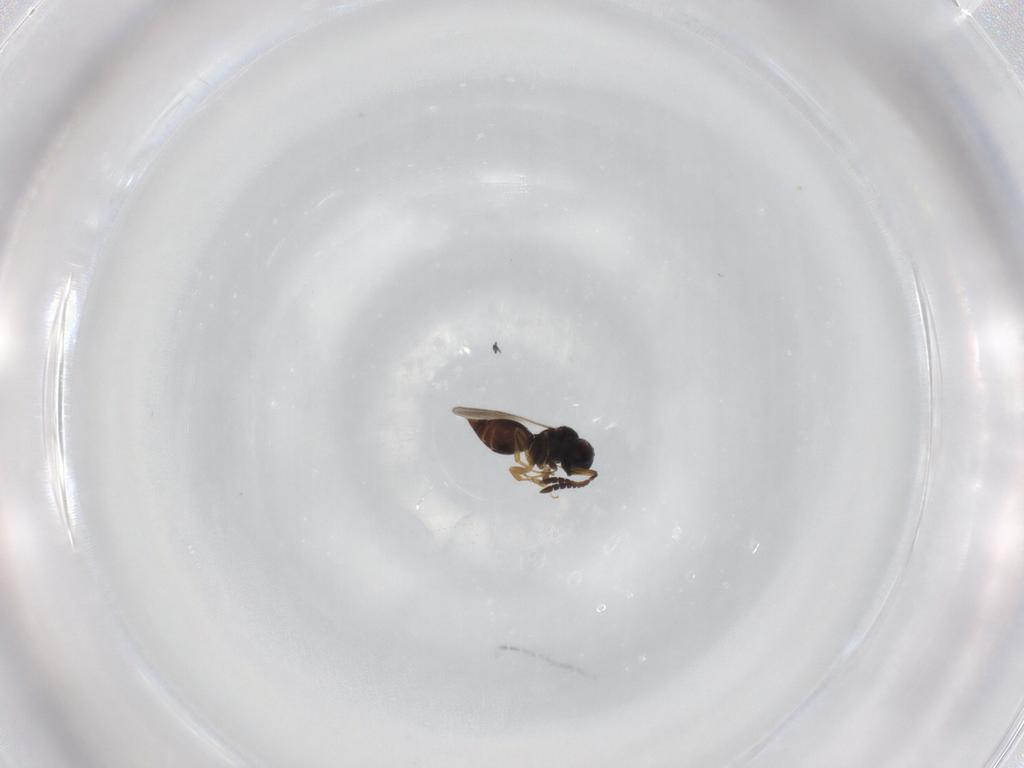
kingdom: Animalia
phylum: Arthropoda
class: Insecta
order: Hymenoptera
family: Ceraphronidae
